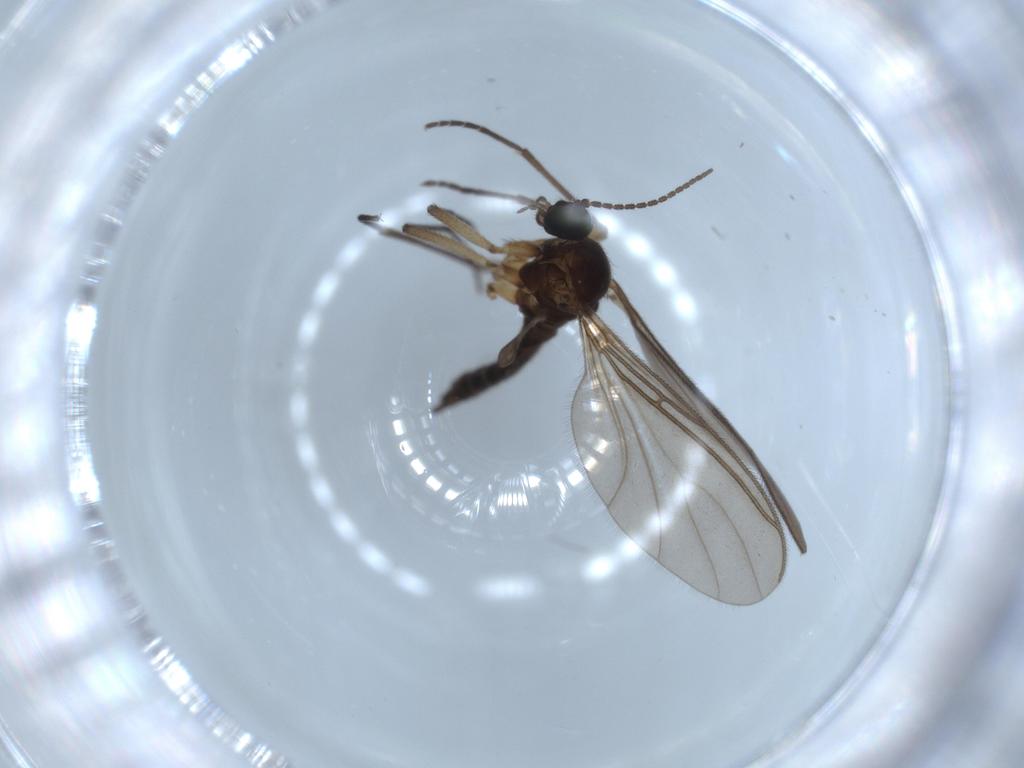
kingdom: Animalia
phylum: Arthropoda
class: Insecta
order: Diptera
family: Sciaridae
